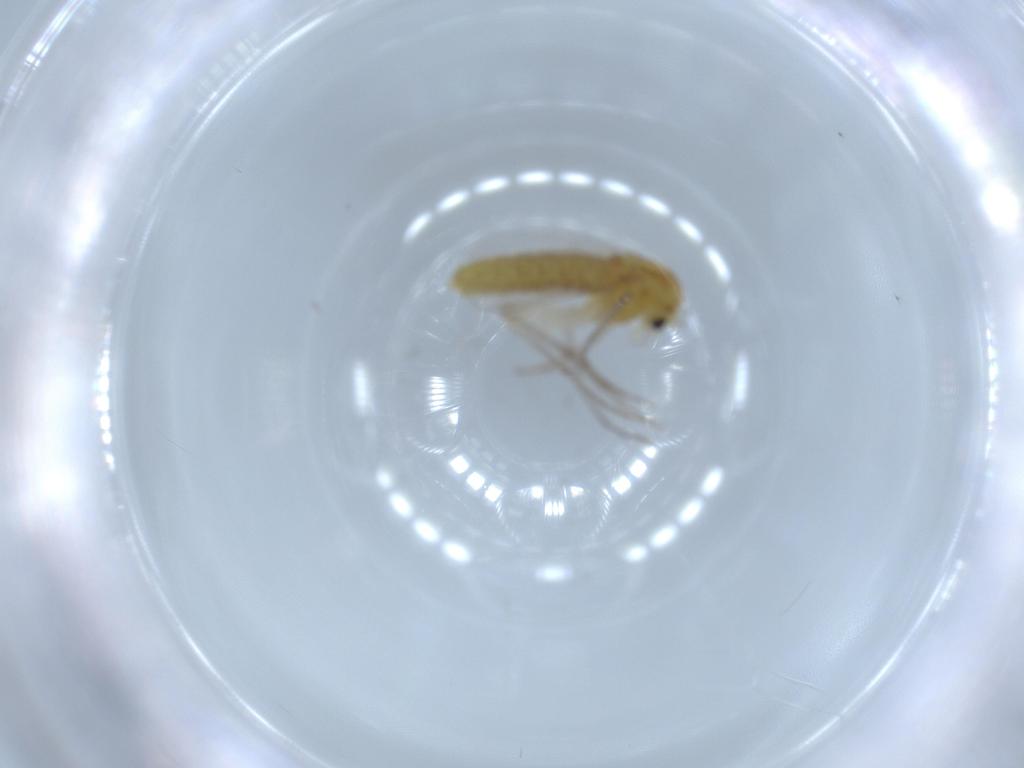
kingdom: Animalia
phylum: Arthropoda
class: Insecta
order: Diptera
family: Chironomidae
